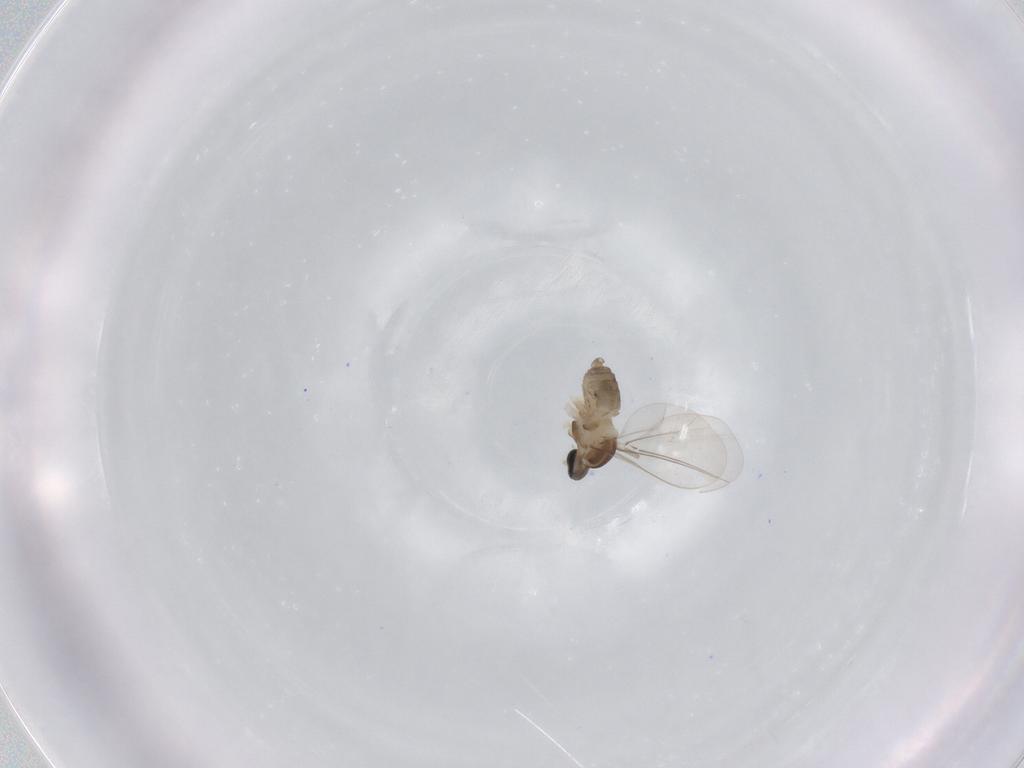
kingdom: Animalia
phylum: Arthropoda
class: Insecta
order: Diptera
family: Cecidomyiidae
